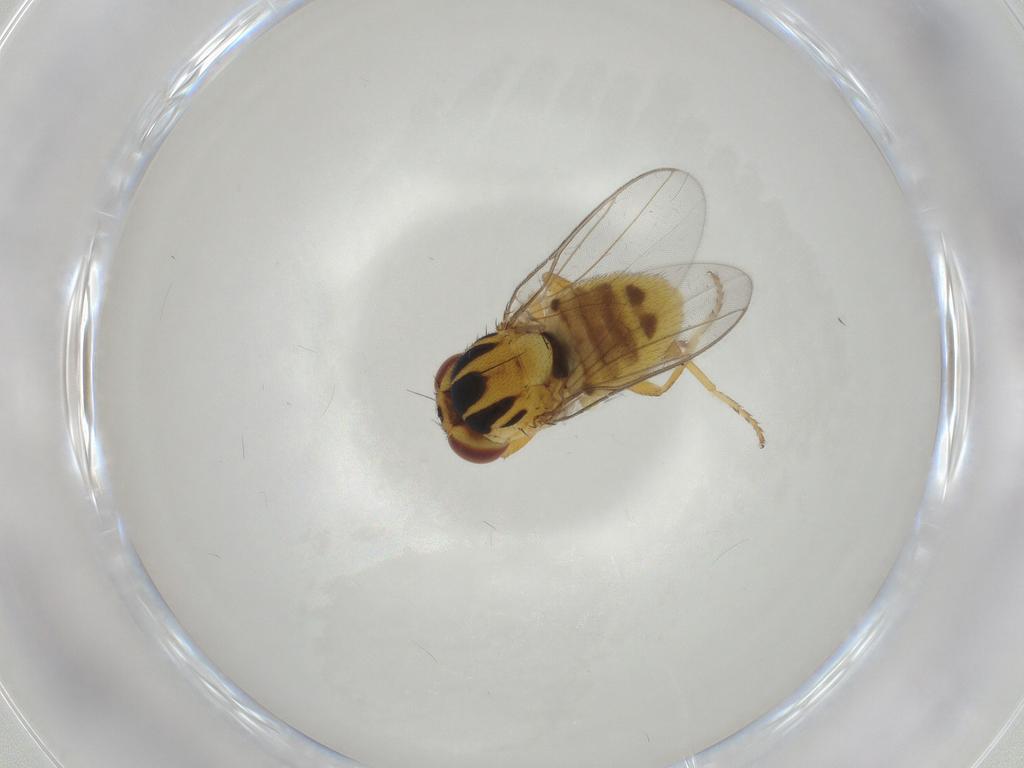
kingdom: Animalia
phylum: Arthropoda
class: Insecta
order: Diptera
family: Chloropidae
